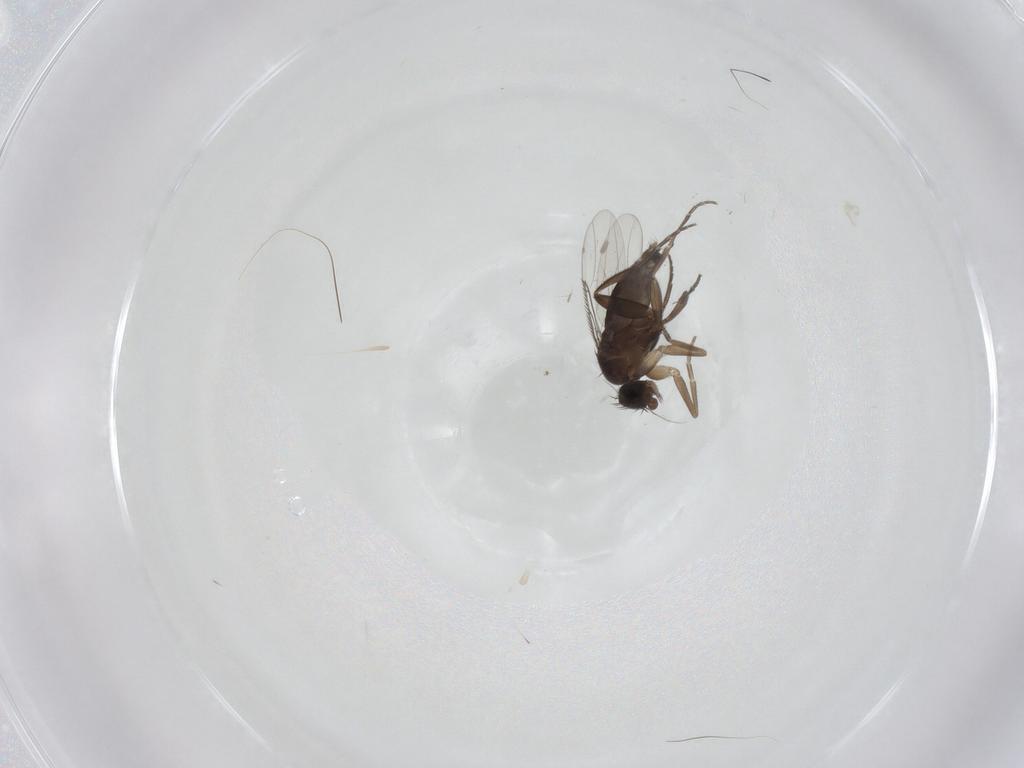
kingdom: Animalia
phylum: Arthropoda
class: Insecta
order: Diptera
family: Phoridae
